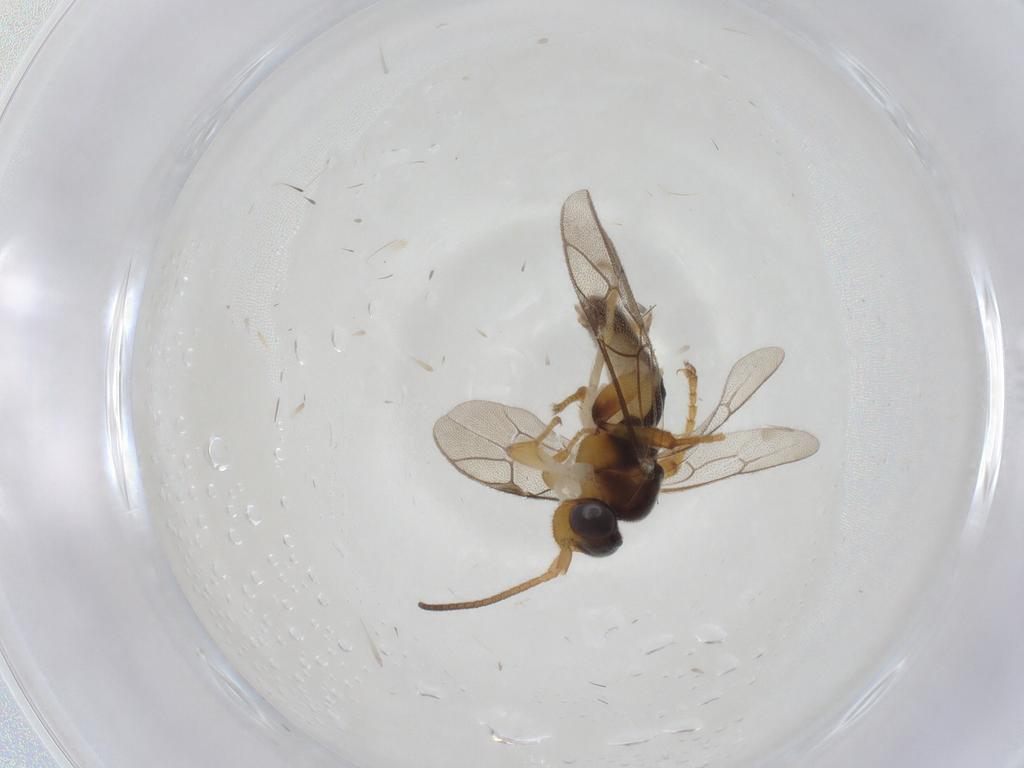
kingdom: Animalia
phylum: Arthropoda
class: Insecta
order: Hymenoptera
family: Ichneumonidae
